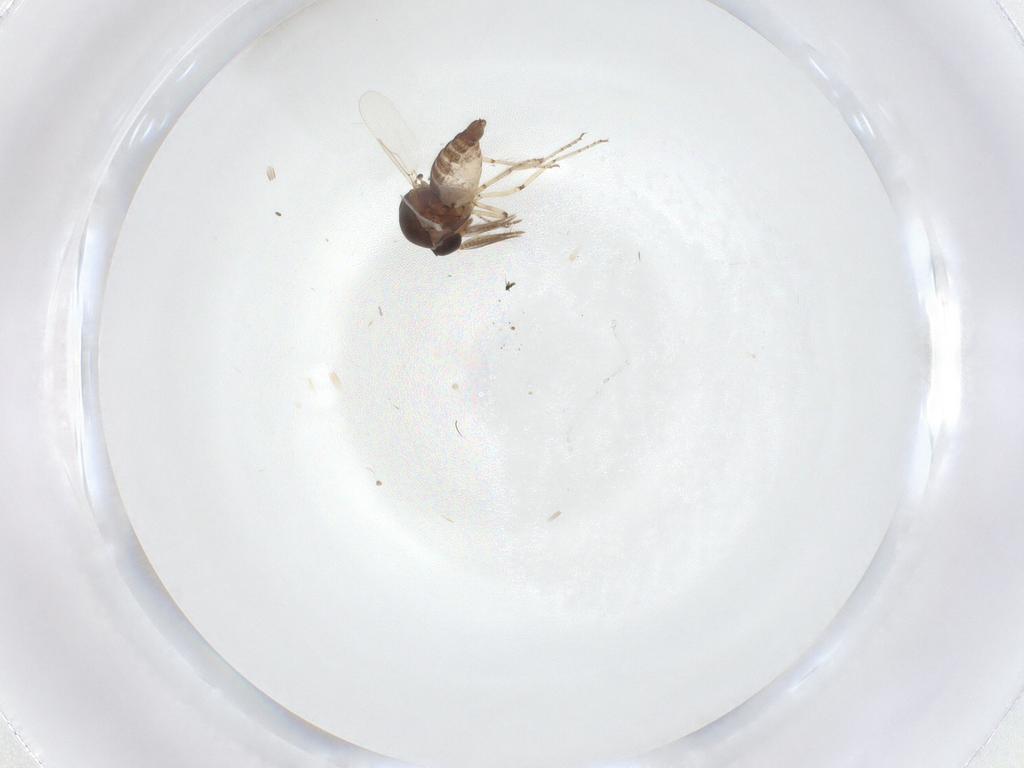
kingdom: Animalia
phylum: Arthropoda
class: Insecta
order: Diptera
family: Ceratopogonidae
